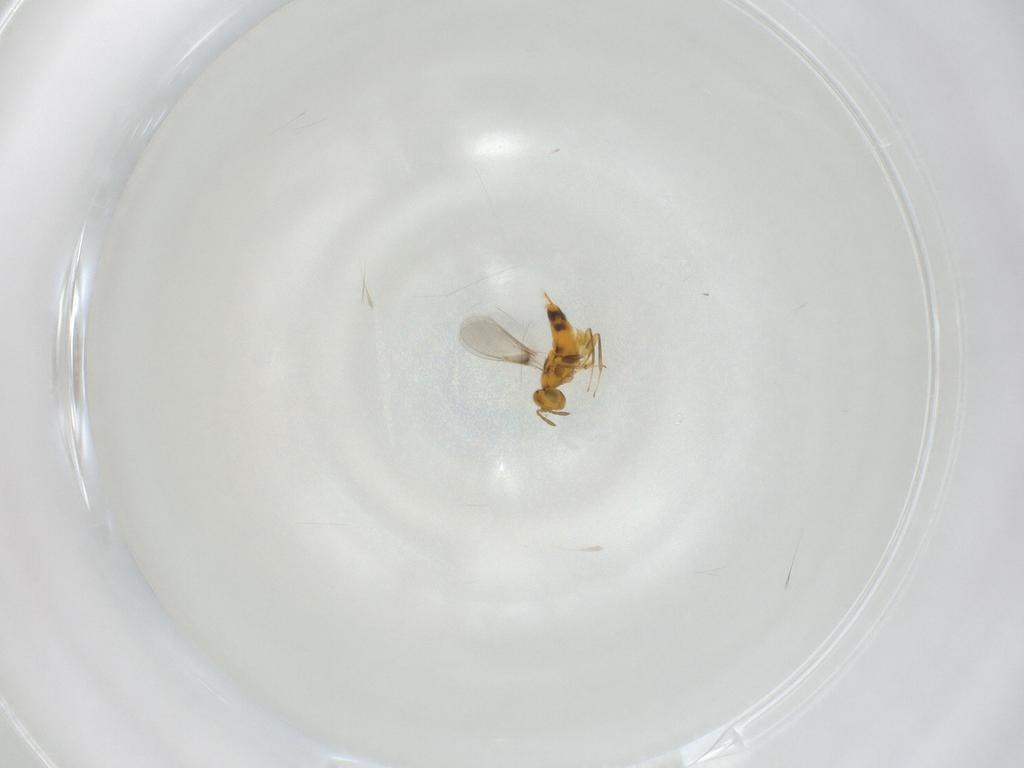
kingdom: Animalia
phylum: Arthropoda
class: Insecta
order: Hymenoptera
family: Aphelinidae
